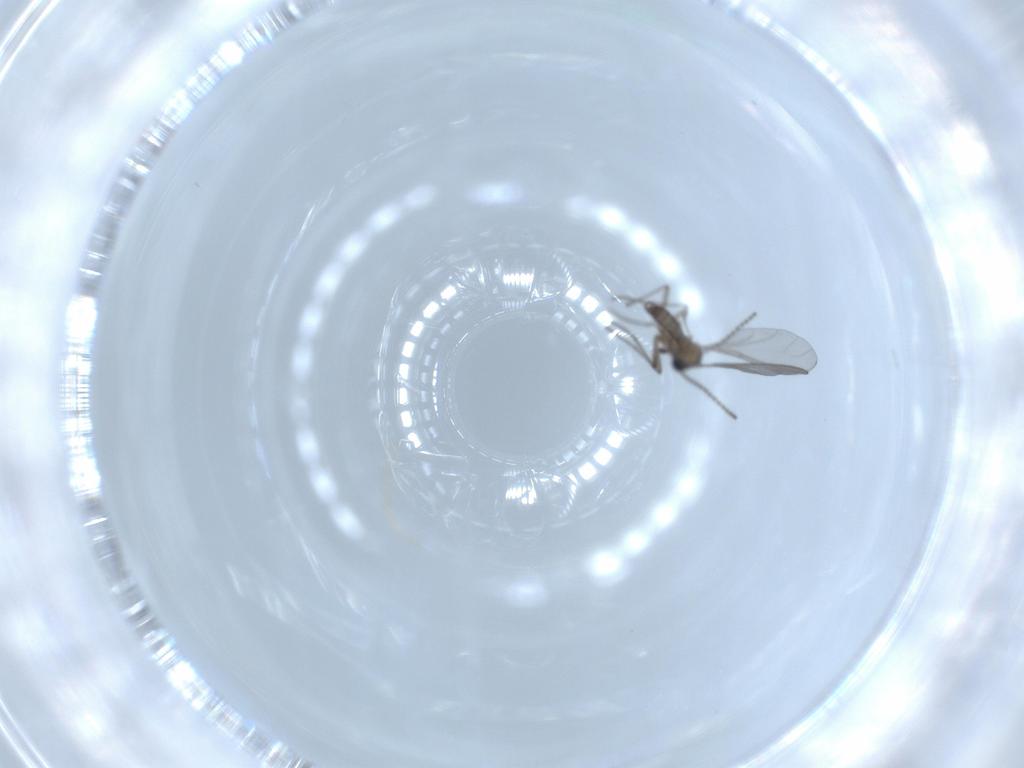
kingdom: Animalia
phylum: Arthropoda
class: Insecta
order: Diptera
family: Sciaridae
